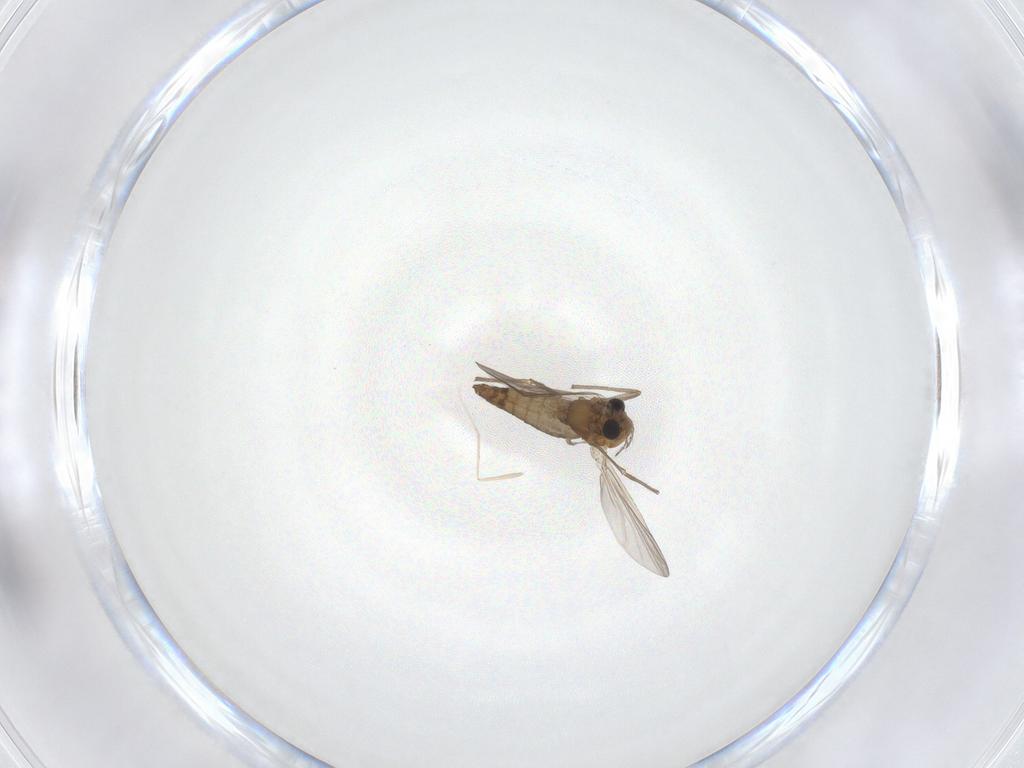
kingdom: Animalia
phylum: Arthropoda
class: Insecta
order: Diptera
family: Chironomidae
